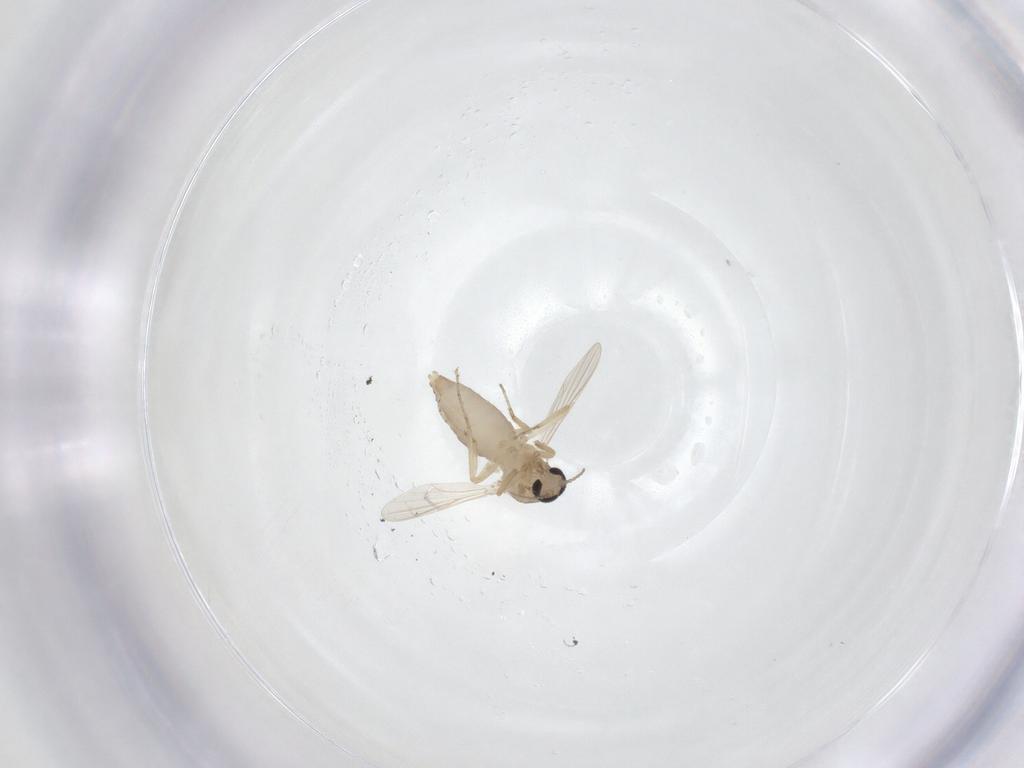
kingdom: Animalia
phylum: Arthropoda
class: Insecta
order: Diptera
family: Ceratopogonidae
